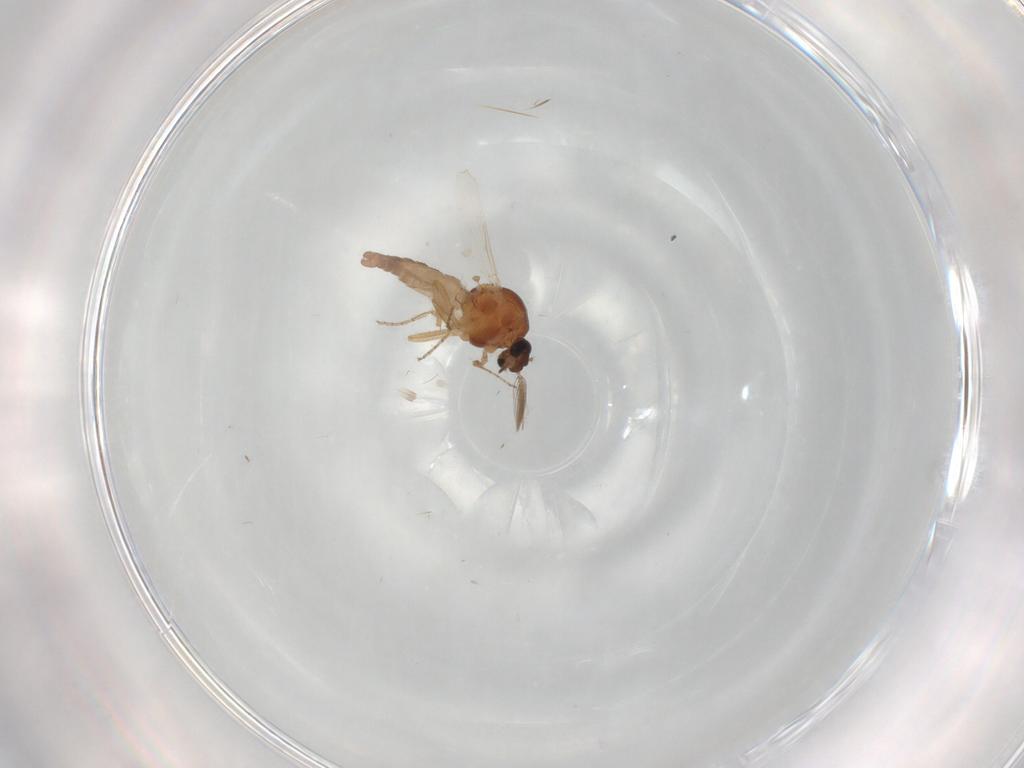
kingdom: Animalia
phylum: Arthropoda
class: Insecta
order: Diptera
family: Ceratopogonidae
